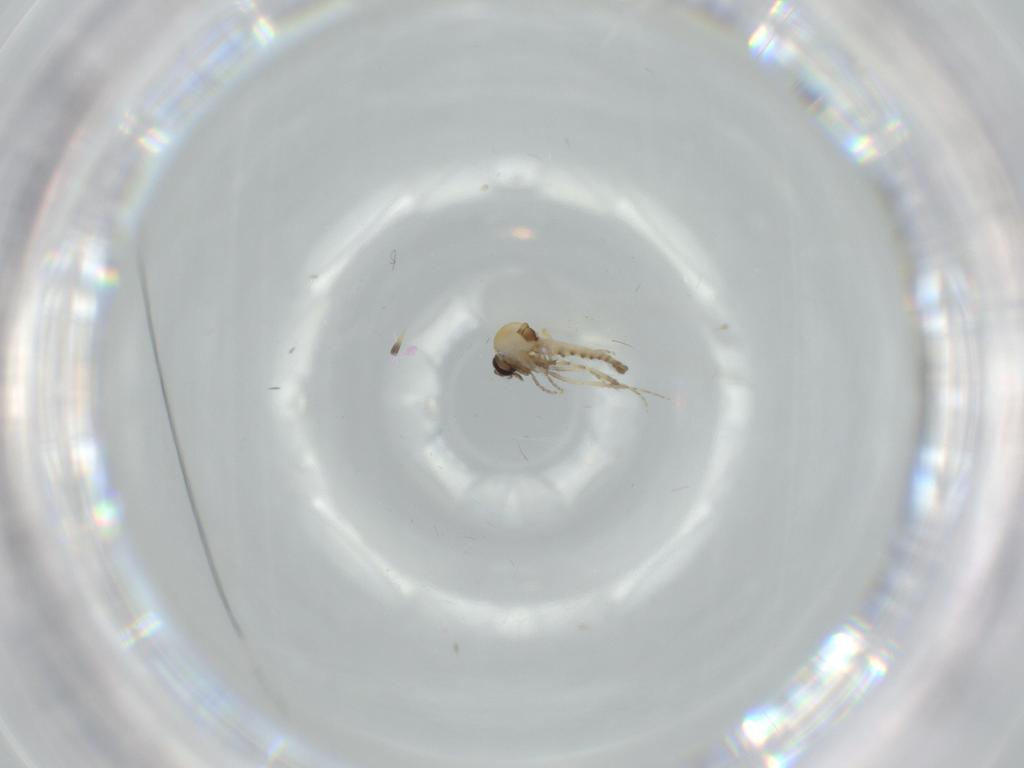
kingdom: Animalia
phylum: Arthropoda
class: Insecta
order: Diptera
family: Ceratopogonidae
